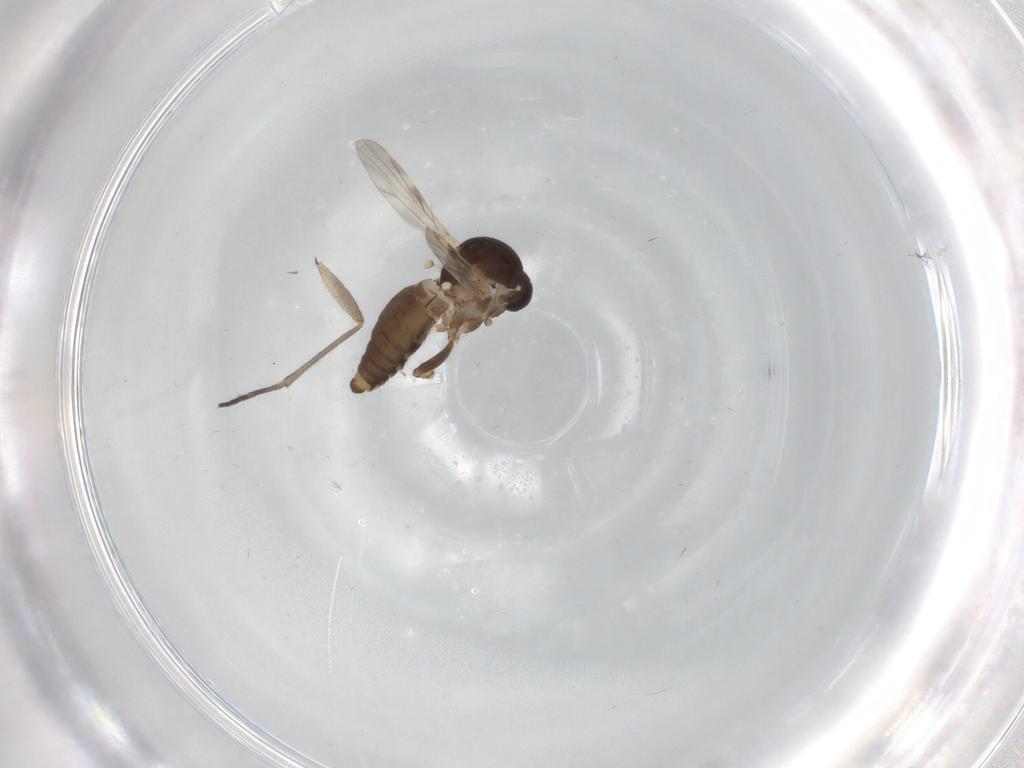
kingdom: Animalia
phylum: Arthropoda
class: Insecta
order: Diptera
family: Ceratopogonidae
